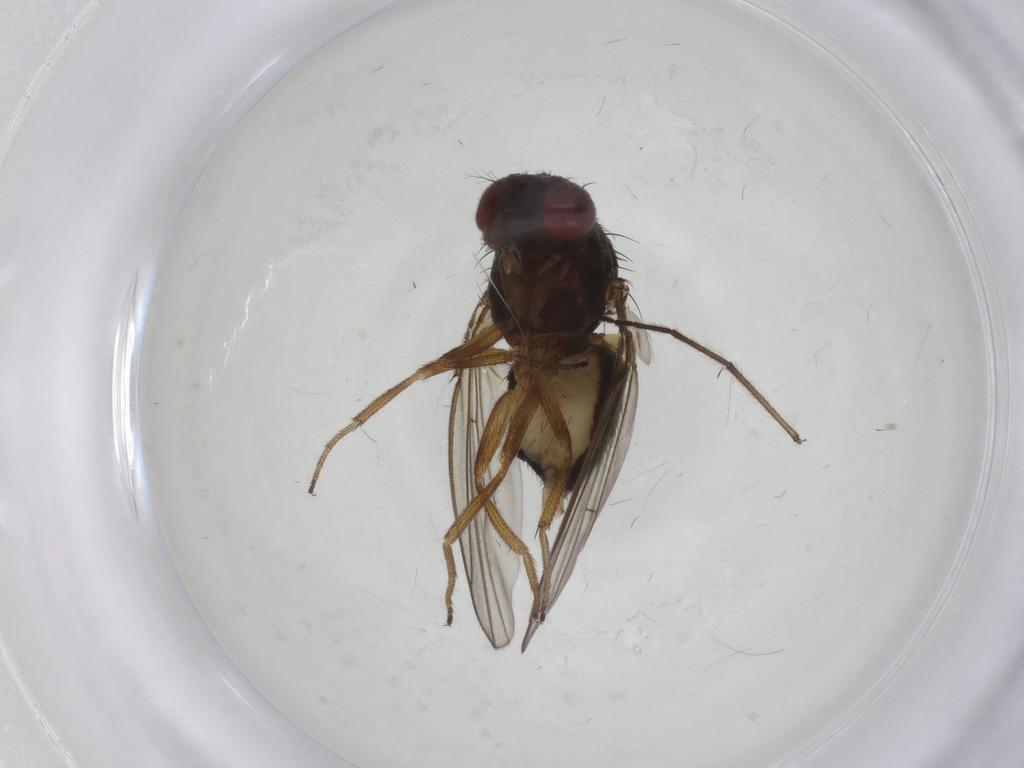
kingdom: Animalia
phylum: Arthropoda
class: Insecta
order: Diptera
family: Drosophilidae
